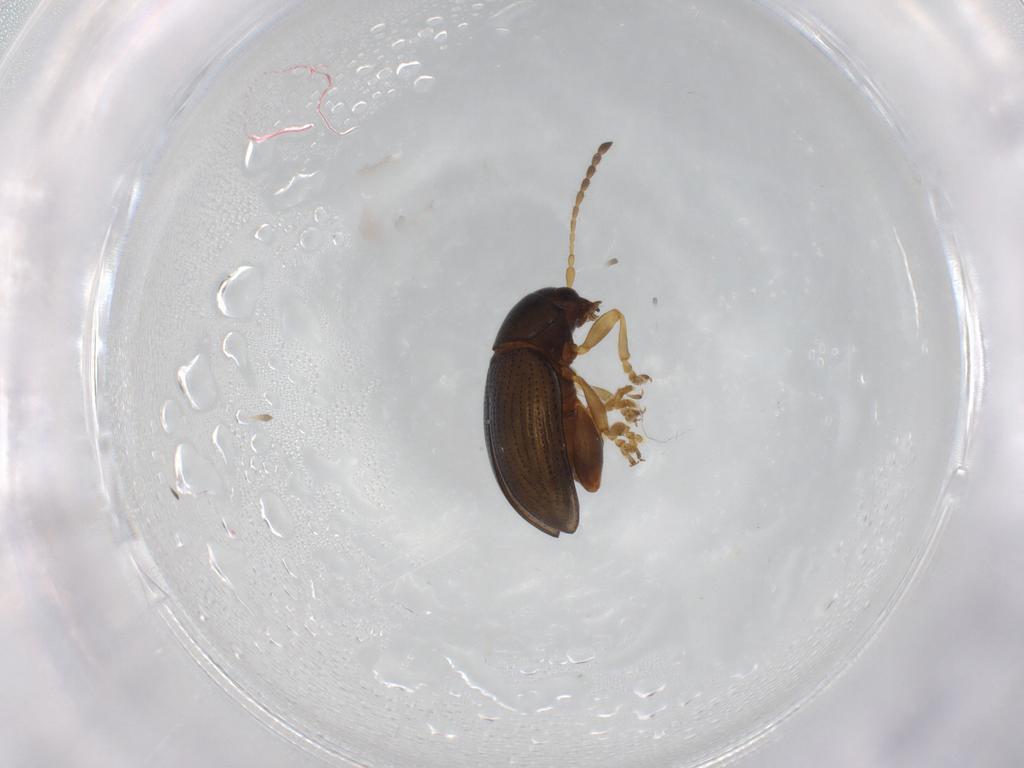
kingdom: Animalia
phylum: Arthropoda
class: Insecta
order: Coleoptera
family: Chrysomelidae
